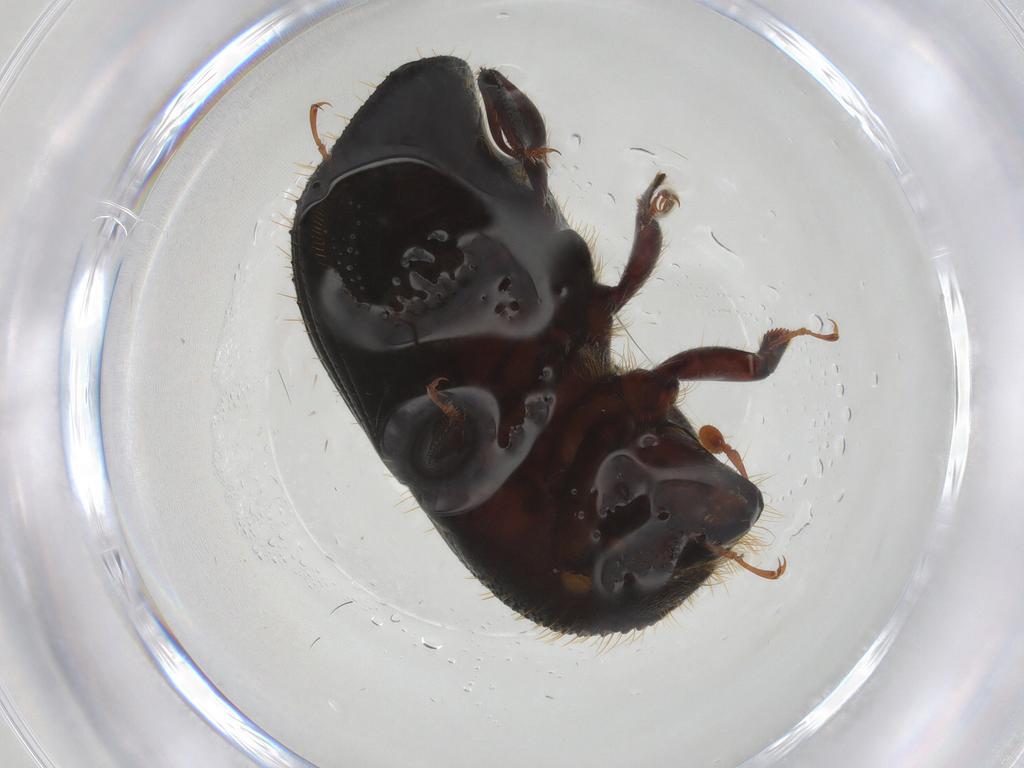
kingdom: Animalia
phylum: Arthropoda
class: Insecta
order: Coleoptera
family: Curculionidae
